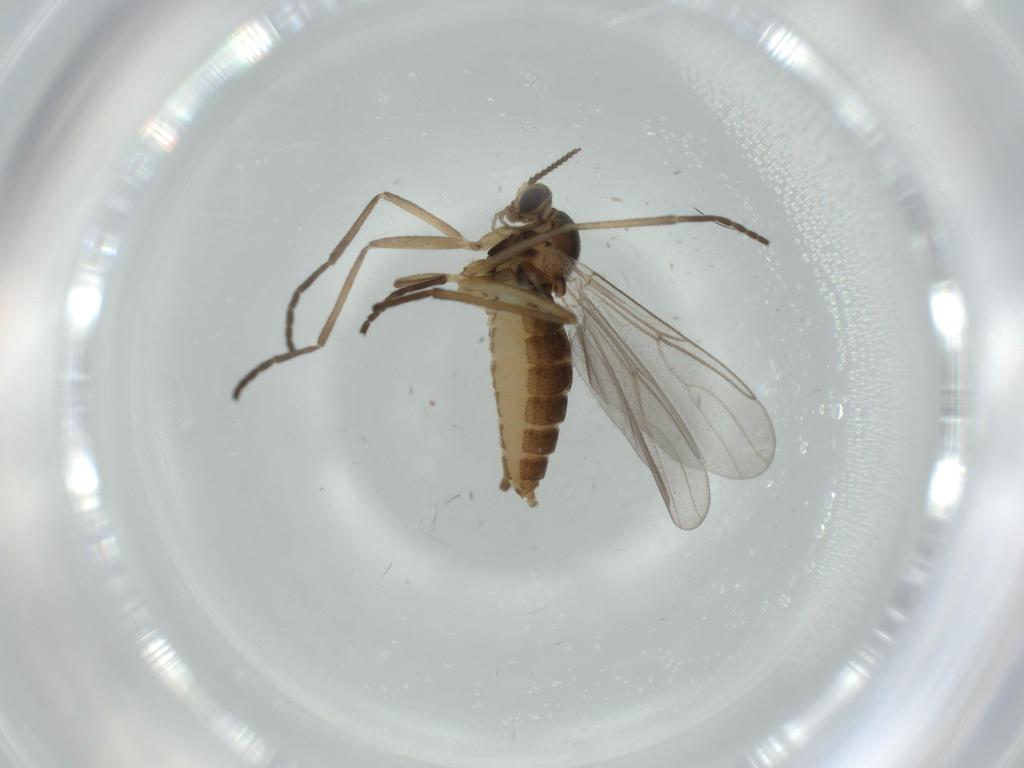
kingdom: Animalia
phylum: Arthropoda
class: Insecta
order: Diptera
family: Cecidomyiidae
